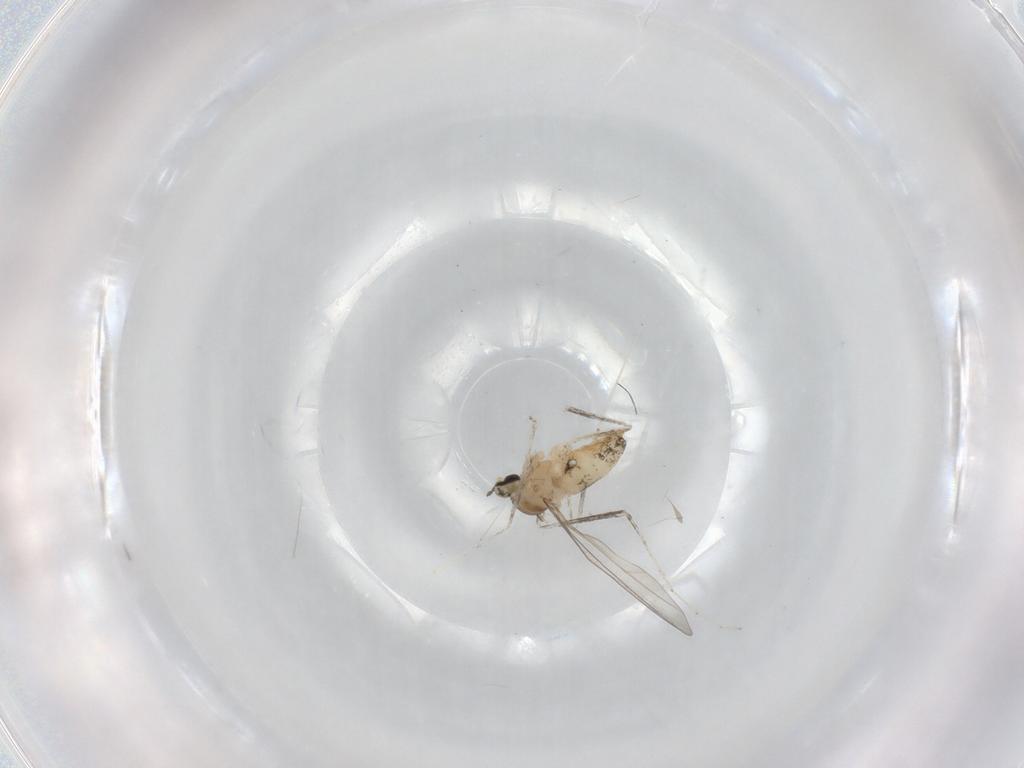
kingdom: Animalia
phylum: Arthropoda
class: Insecta
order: Diptera
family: Cecidomyiidae
